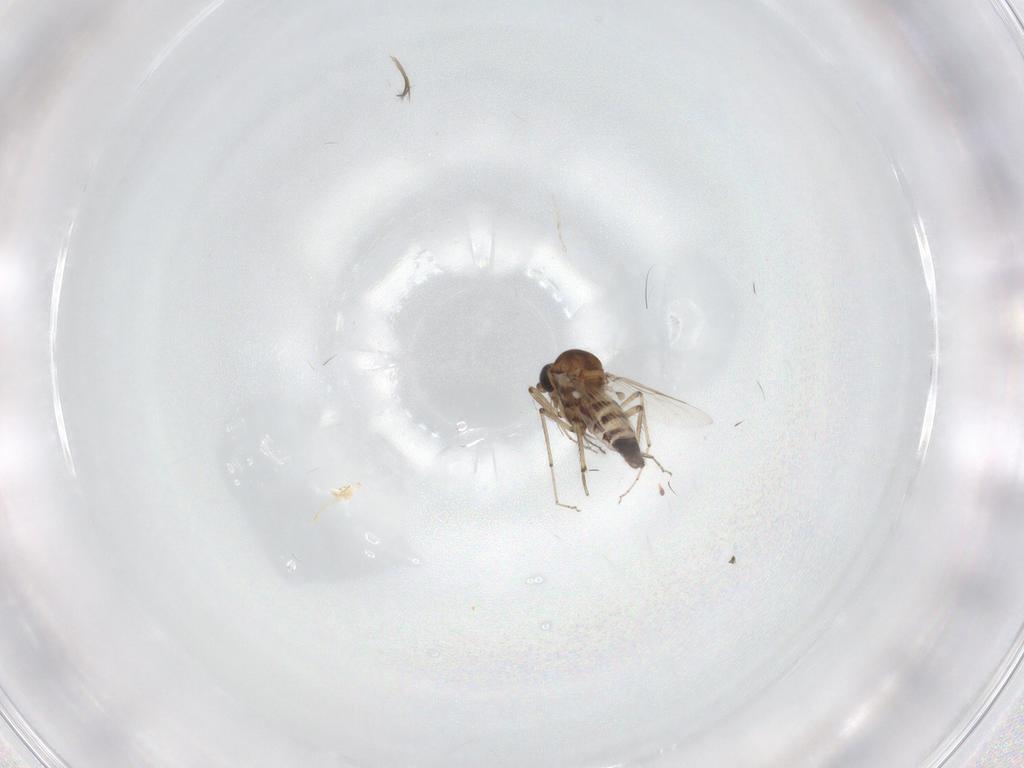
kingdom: Animalia
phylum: Arthropoda
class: Insecta
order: Diptera
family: Ceratopogonidae
